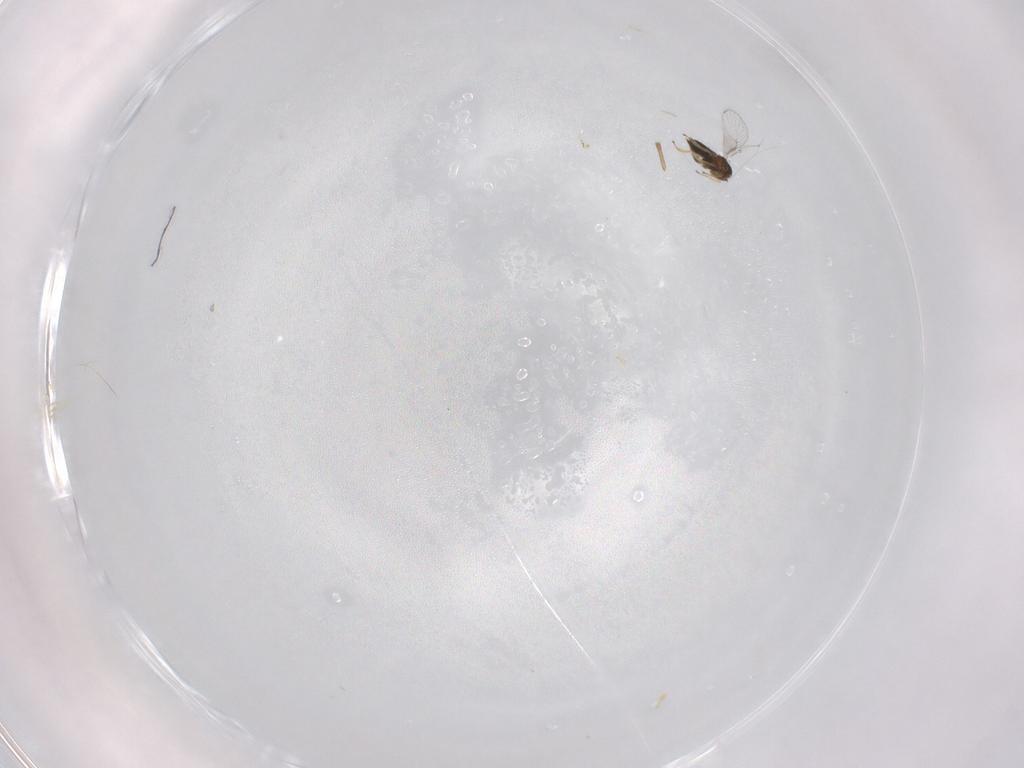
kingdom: Animalia
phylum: Arthropoda
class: Insecta
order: Hymenoptera
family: Trichogrammatidae
